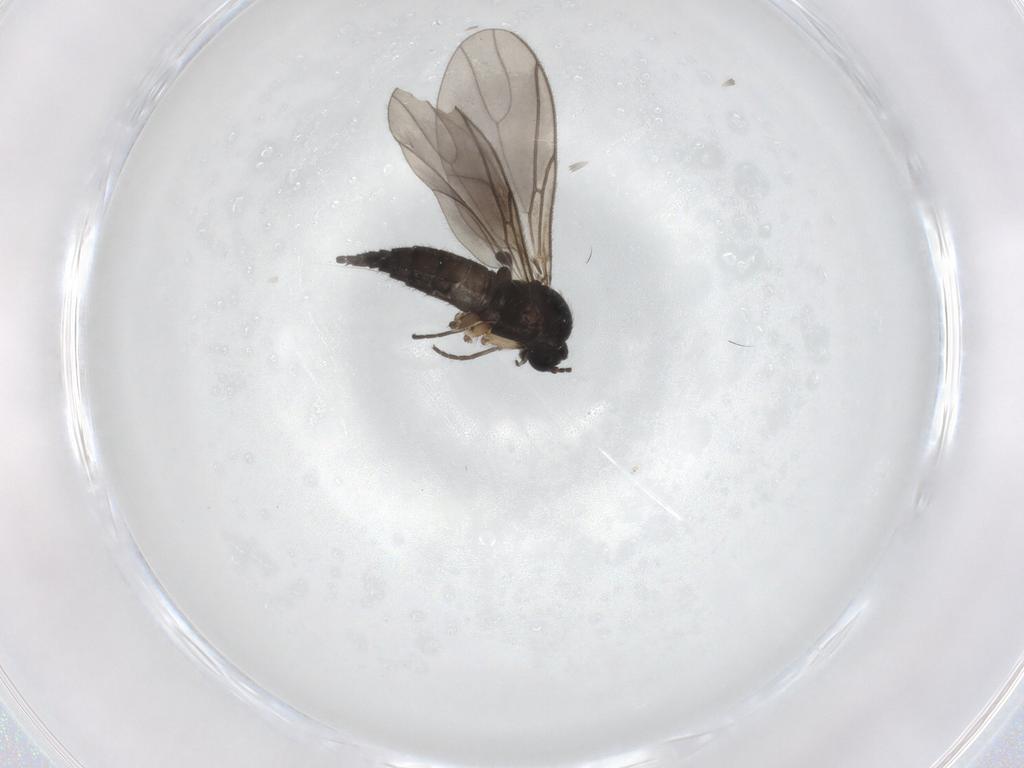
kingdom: Animalia
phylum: Arthropoda
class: Insecta
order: Diptera
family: Sciaridae
